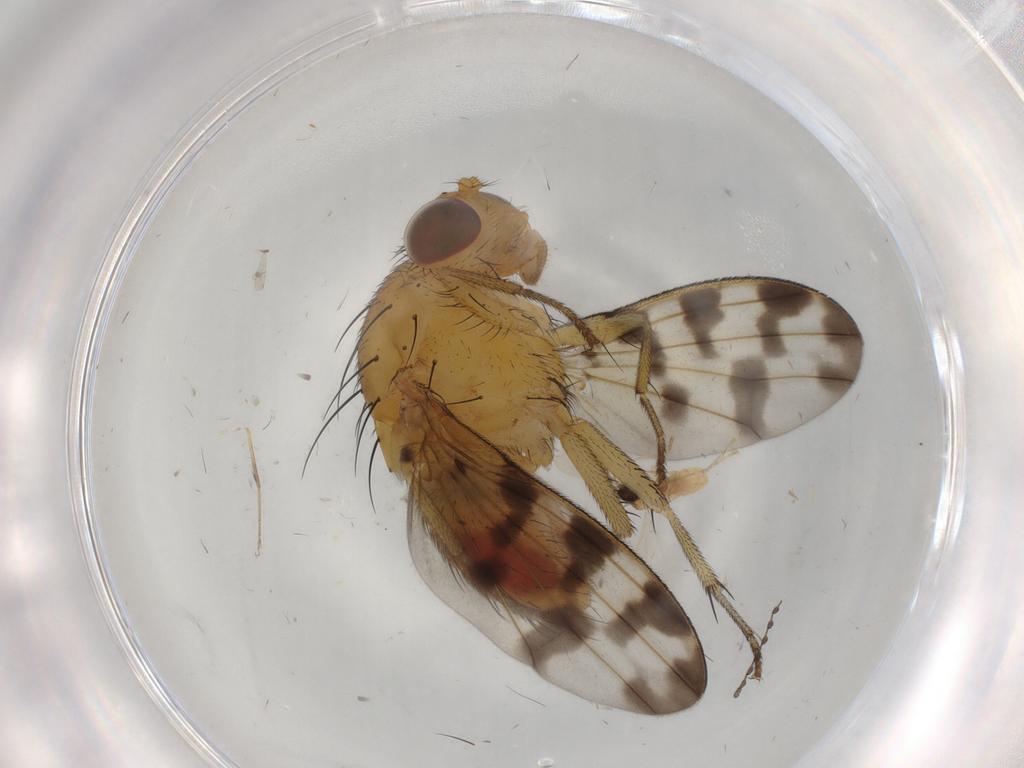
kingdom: Animalia
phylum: Arthropoda
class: Insecta
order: Diptera
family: Cecidomyiidae
